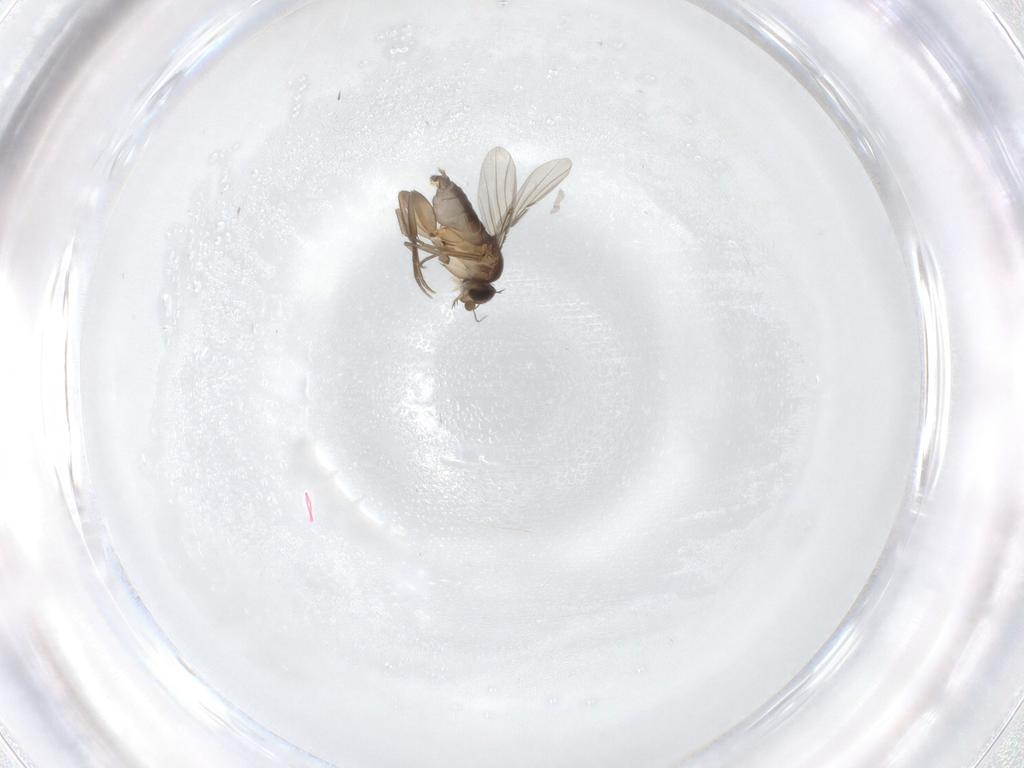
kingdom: Animalia
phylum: Arthropoda
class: Insecta
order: Diptera
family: Phoridae
